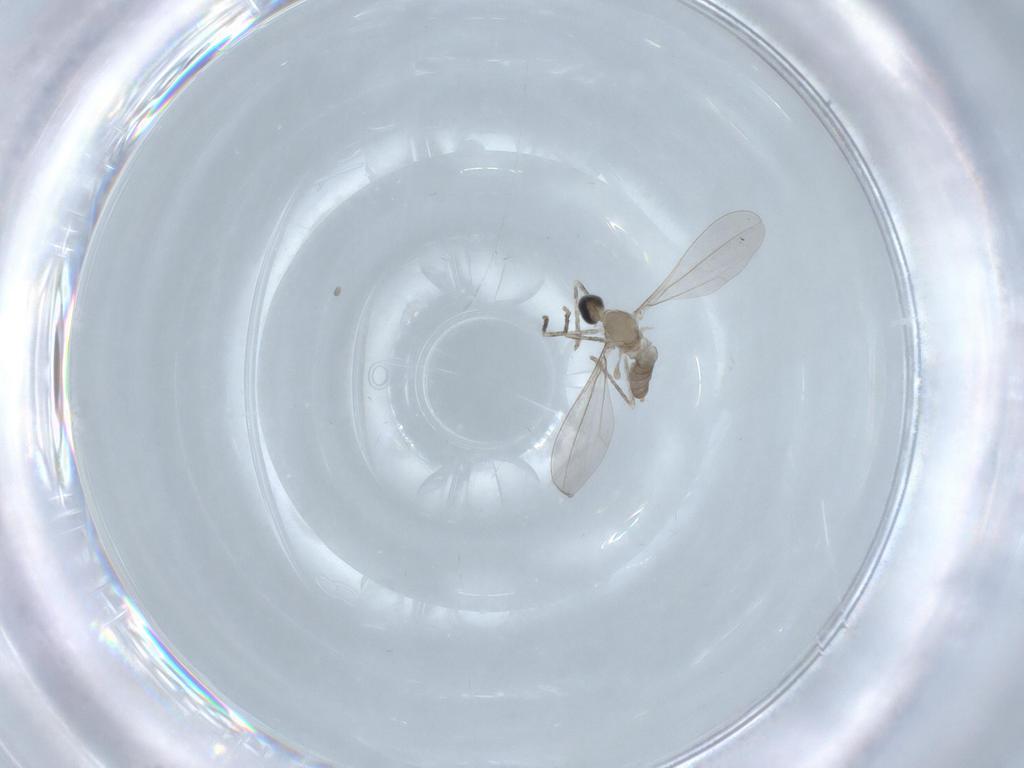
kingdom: Animalia
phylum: Arthropoda
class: Insecta
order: Diptera
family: Cecidomyiidae
